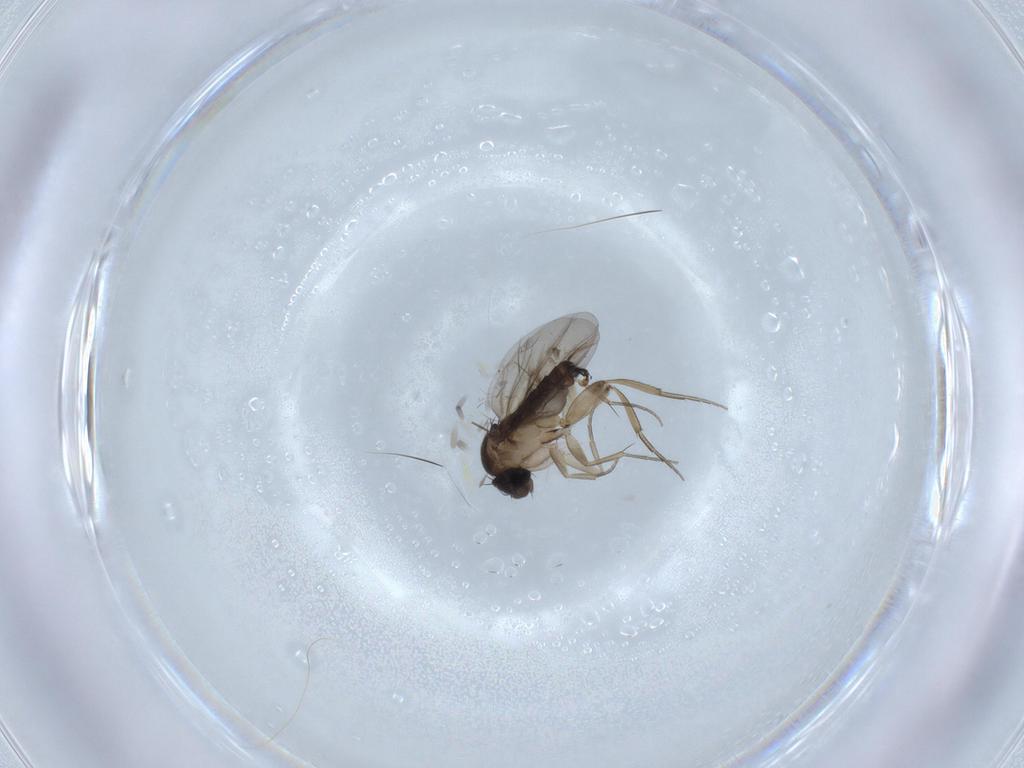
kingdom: Animalia
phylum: Arthropoda
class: Insecta
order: Diptera
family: Phoridae
